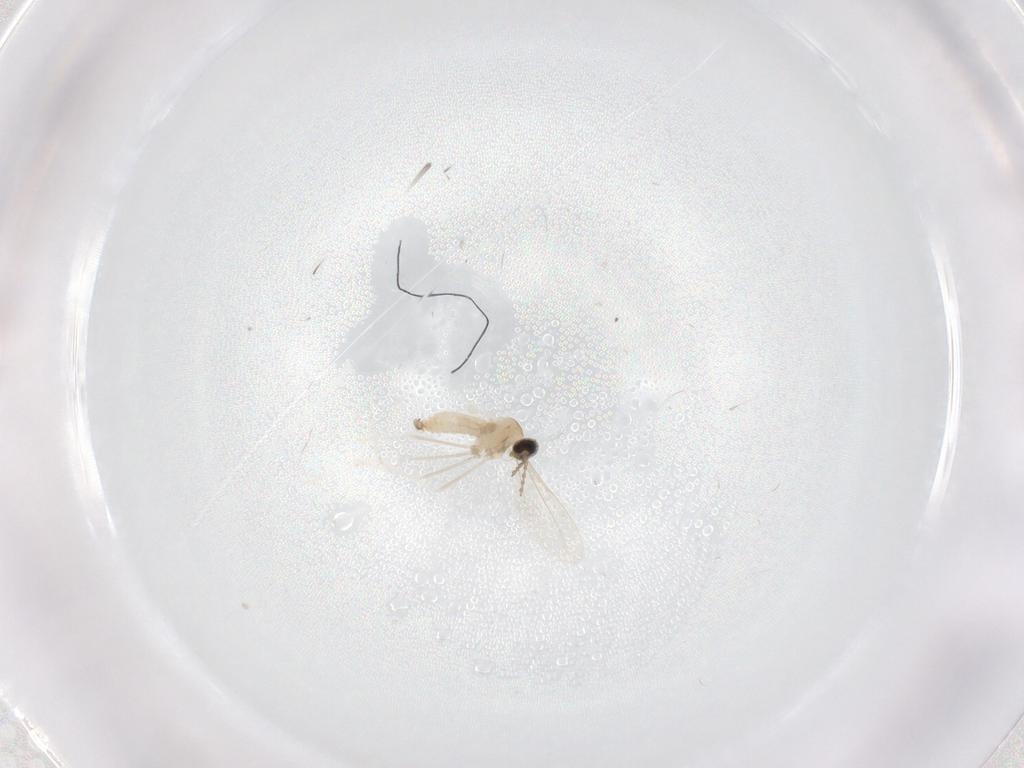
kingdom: Animalia
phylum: Arthropoda
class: Insecta
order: Diptera
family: Cecidomyiidae
